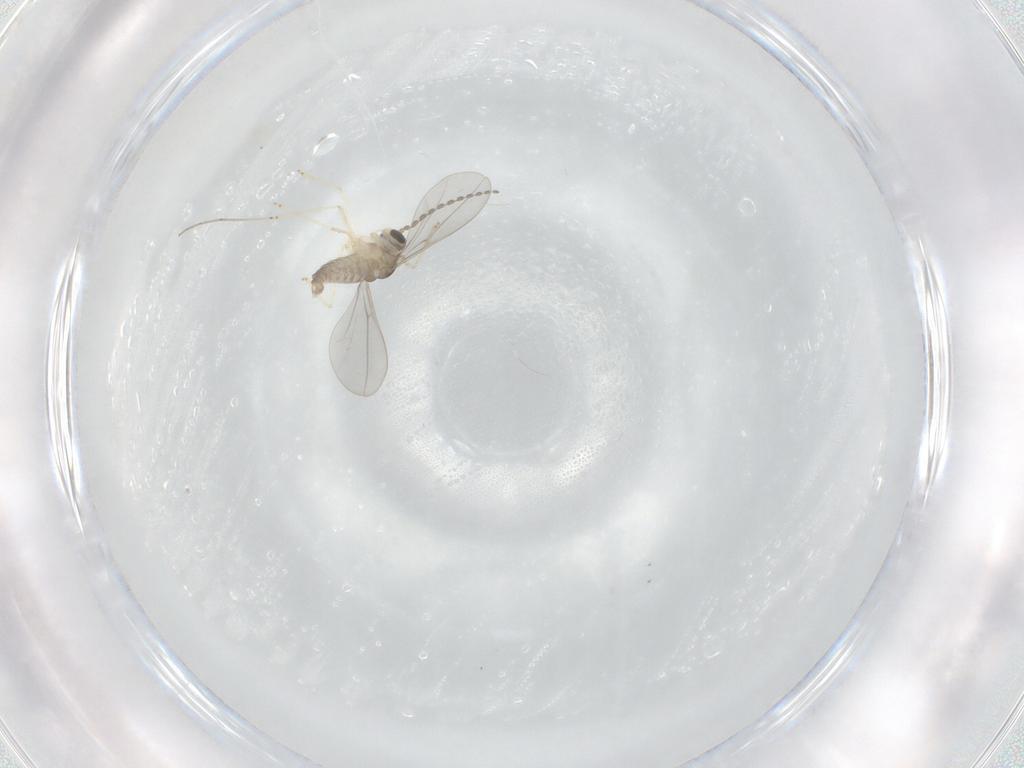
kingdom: Animalia
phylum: Arthropoda
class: Insecta
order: Diptera
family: Cecidomyiidae
